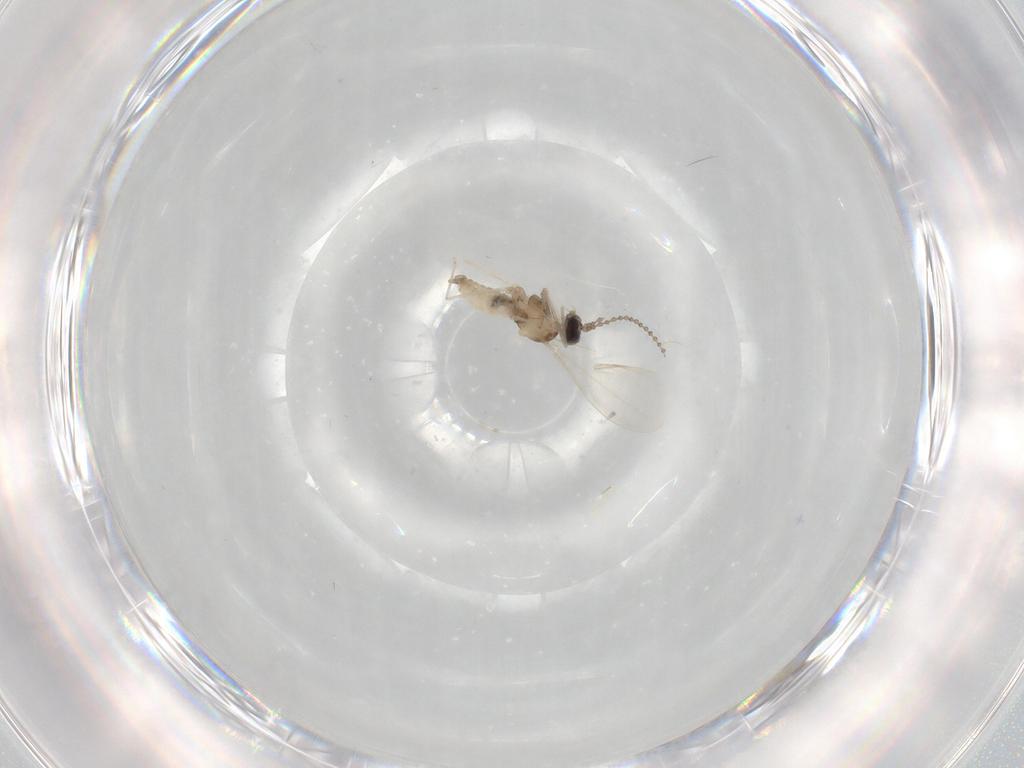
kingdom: Animalia
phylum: Arthropoda
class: Insecta
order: Diptera
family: Cecidomyiidae
